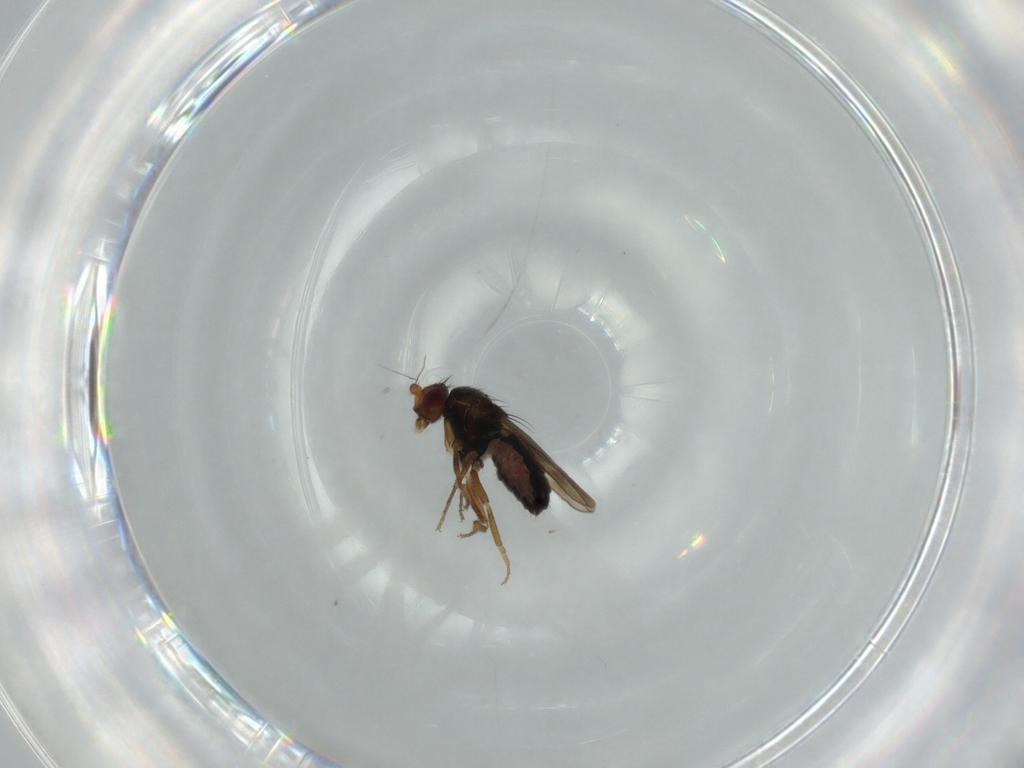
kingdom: Animalia
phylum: Arthropoda
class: Insecta
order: Diptera
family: Sphaeroceridae
